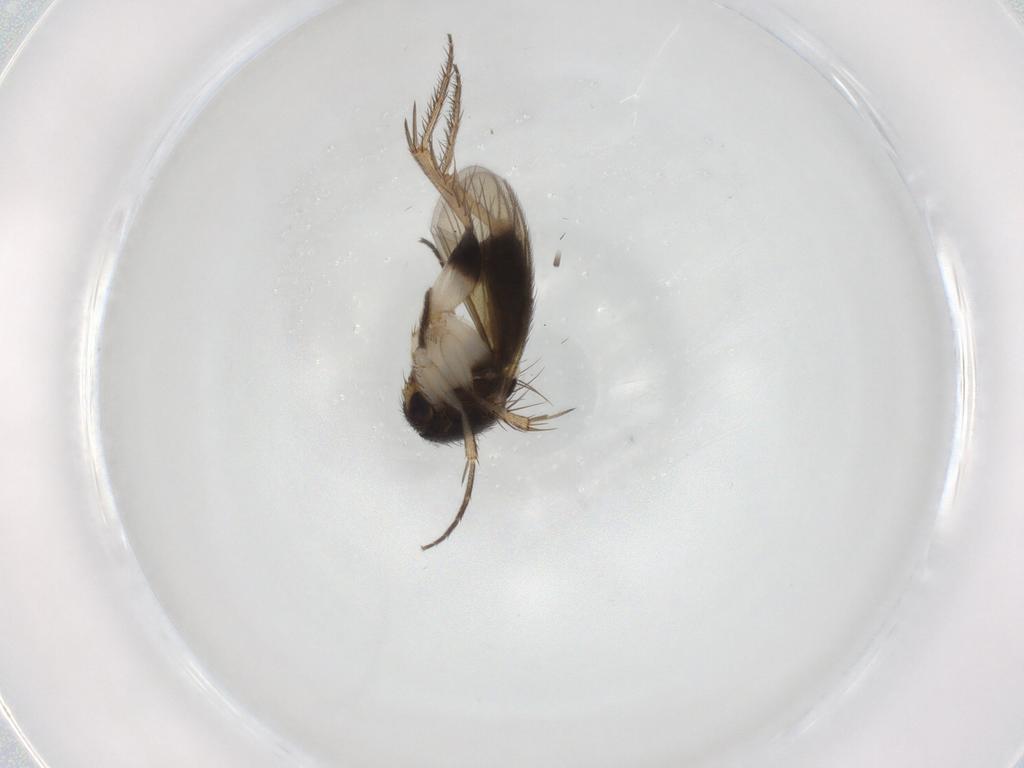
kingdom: Animalia
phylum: Arthropoda
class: Insecta
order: Diptera
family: Mycetophilidae
